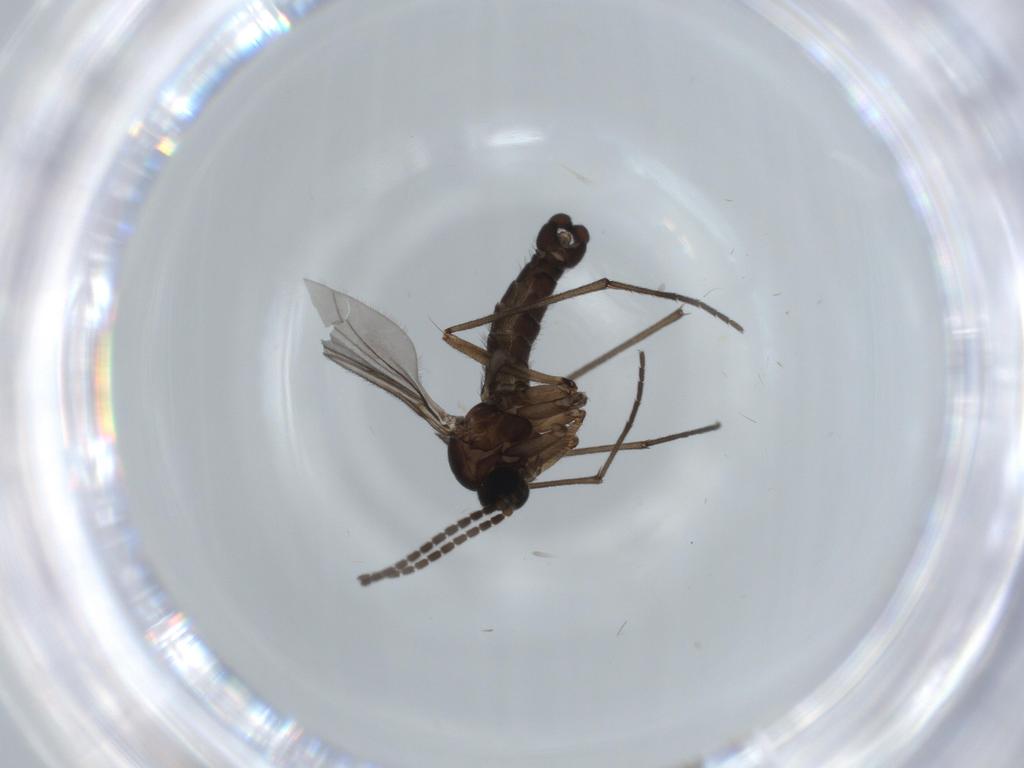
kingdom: Animalia
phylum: Arthropoda
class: Insecta
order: Diptera
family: Sciaridae
